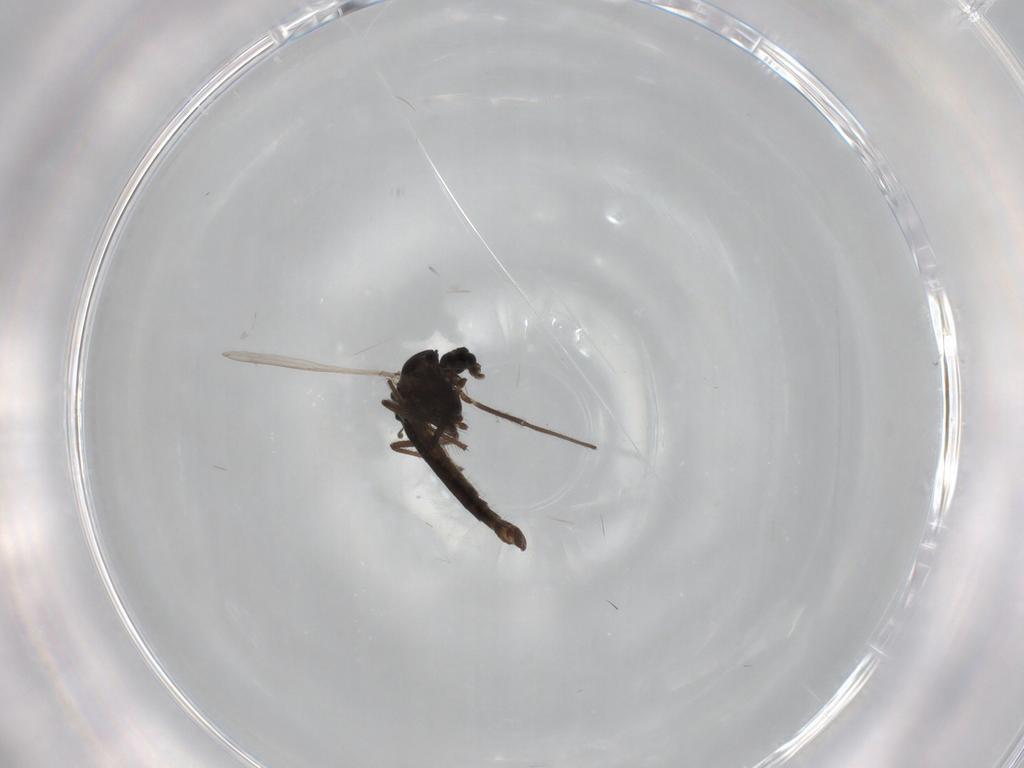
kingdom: Animalia
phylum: Arthropoda
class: Insecta
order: Diptera
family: Chironomidae
